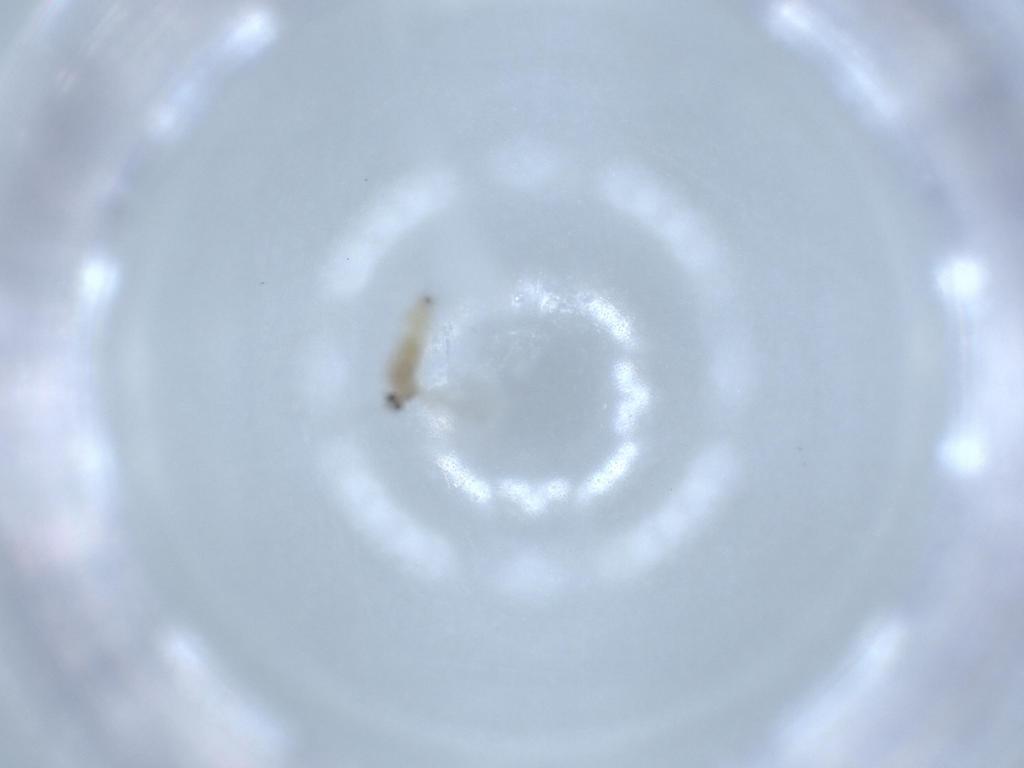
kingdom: Animalia
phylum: Arthropoda
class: Insecta
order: Diptera
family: Cecidomyiidae
